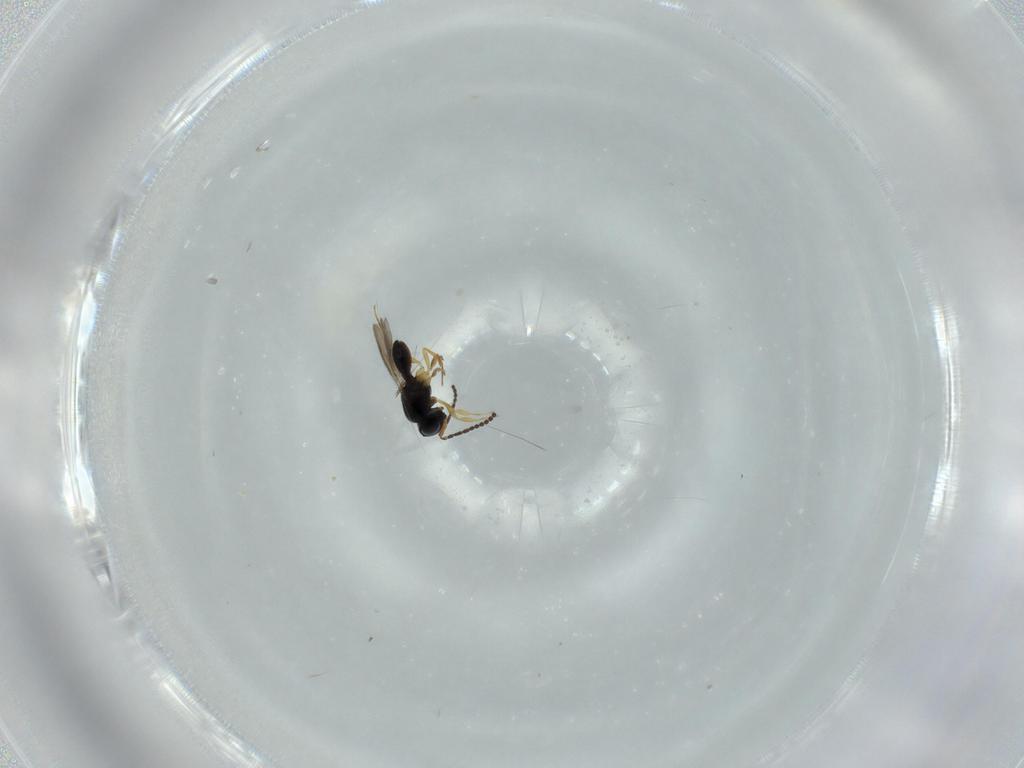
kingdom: Animalia
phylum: Arthropoda
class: Insecta
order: Hymenoptera
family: Scelionidae
